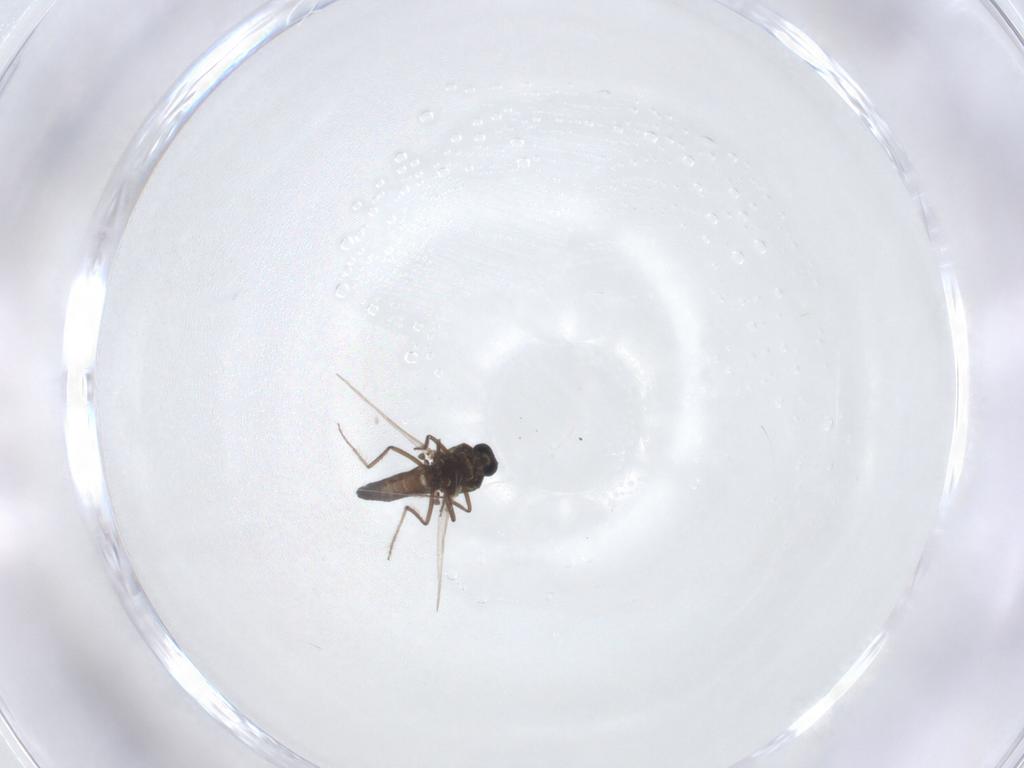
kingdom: Animalia
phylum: Arthropoda
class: Insecta
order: Diptera
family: Ceratopogonidae
